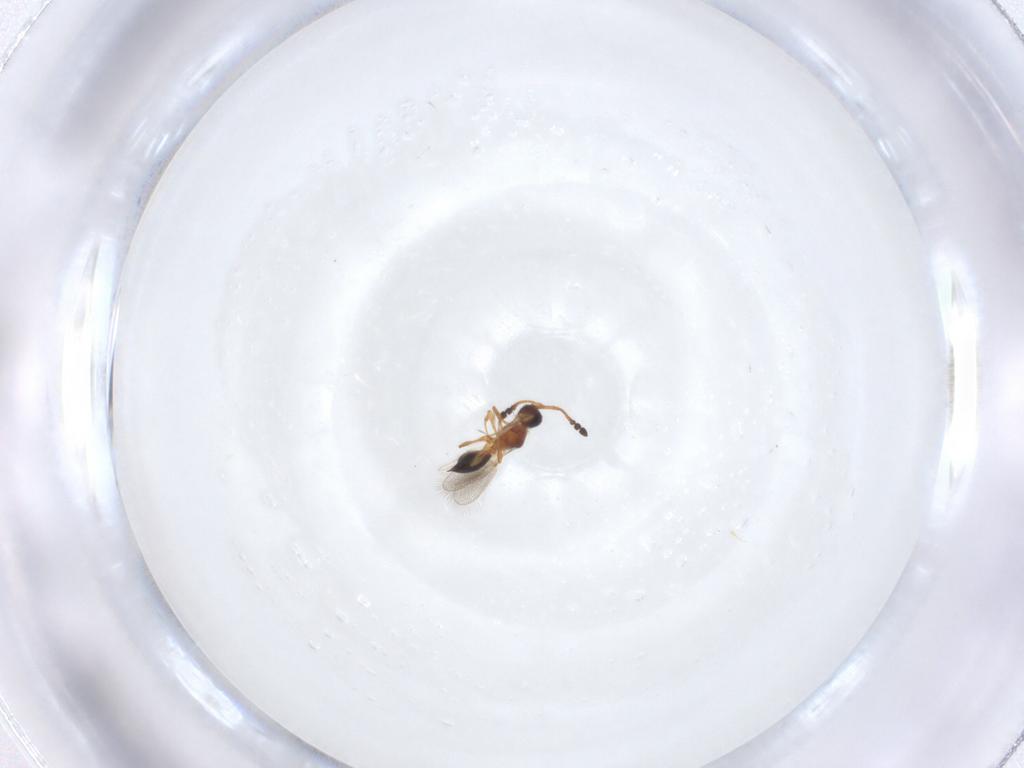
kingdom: Animalia
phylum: Arthropoda
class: Insecta
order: Hymenoptera
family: Diapriidae
